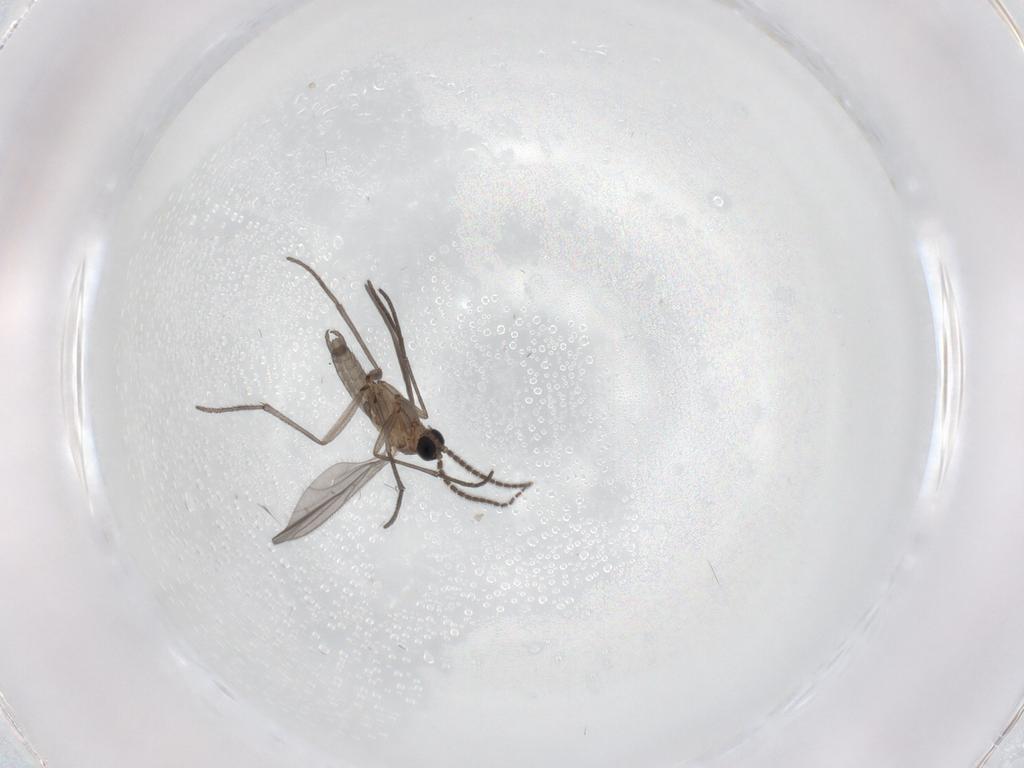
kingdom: Animalia
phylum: Arthropoda
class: Insecta
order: Diptera
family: Sciaridae
